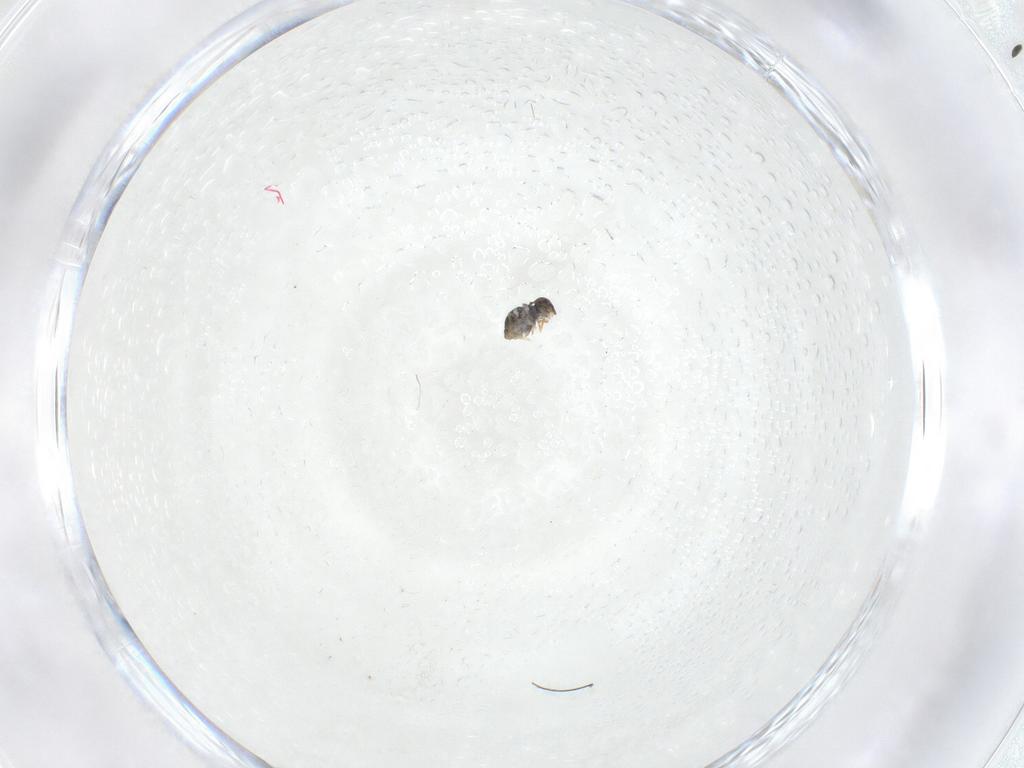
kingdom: Animalia
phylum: Arthropoda
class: Collembola
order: Symphypleona
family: Katiannidae
